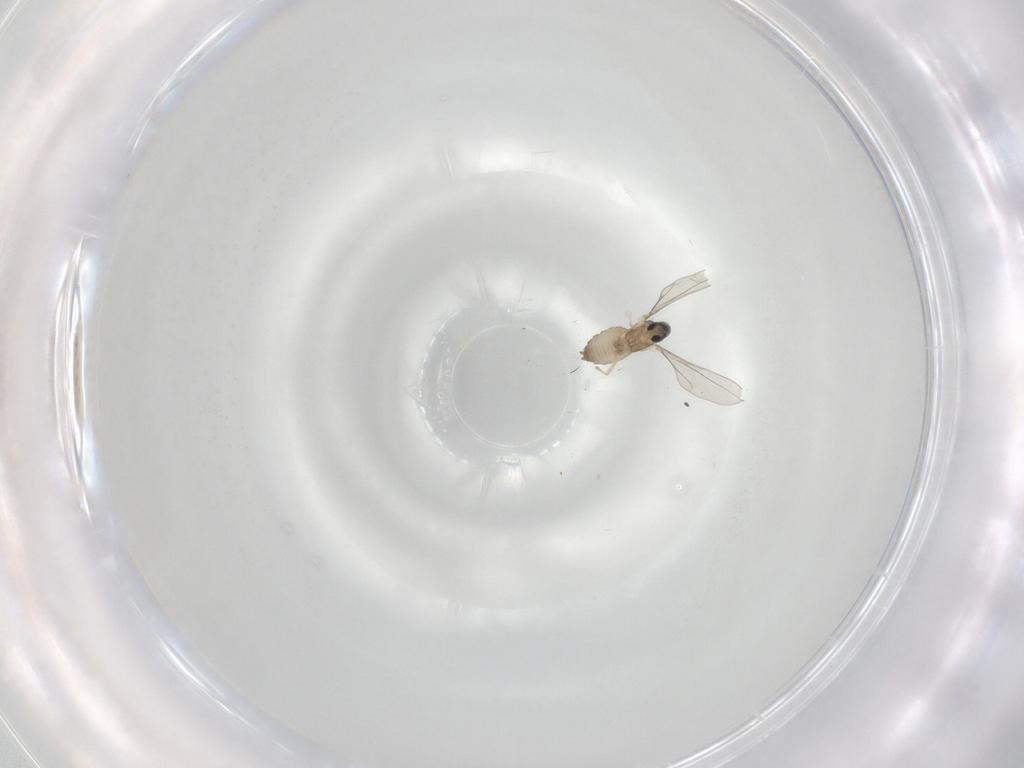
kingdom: Animalia
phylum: Arthropoda
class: Insecta
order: Diptera
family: Cecidomyiidae
